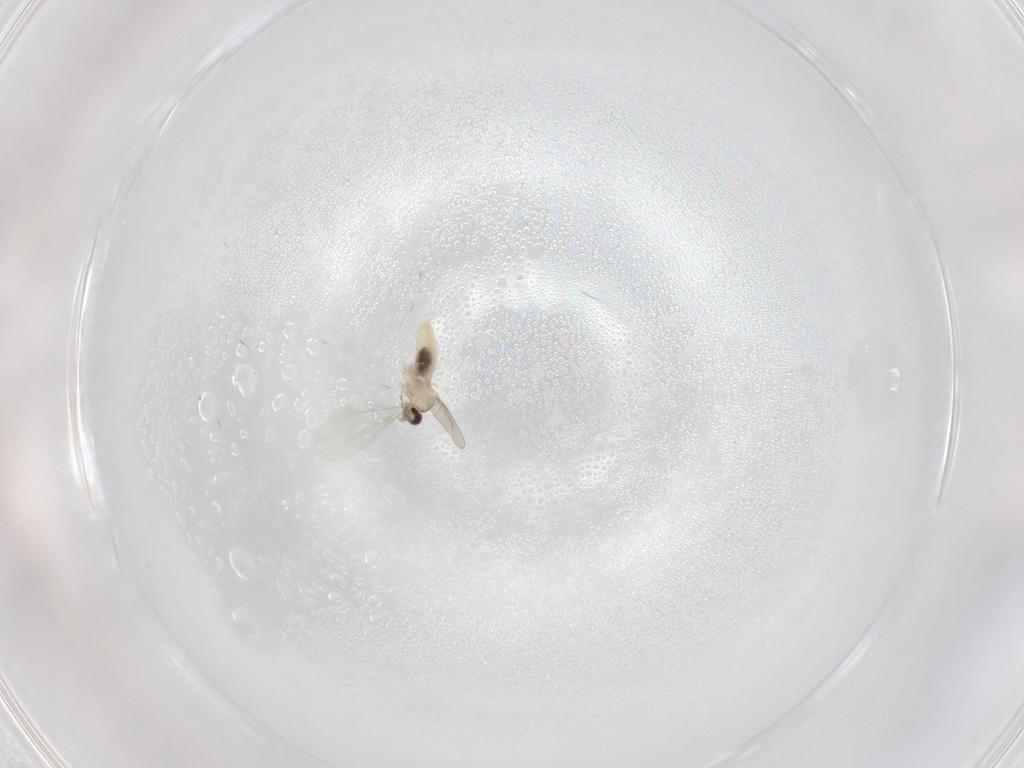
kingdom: Animalia
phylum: Arthropoda
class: Insecta
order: Diptera
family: Cecidomyiidae
